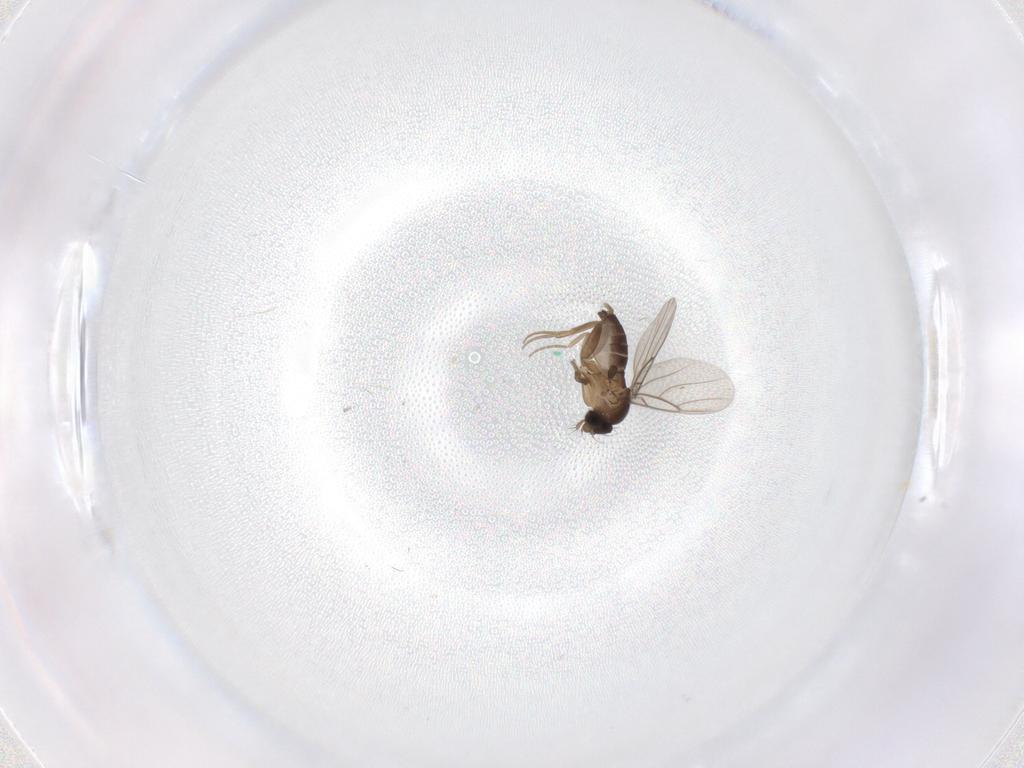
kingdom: Animalia
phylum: Arthropoda
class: Insecta
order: Diptera
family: Phoridae
